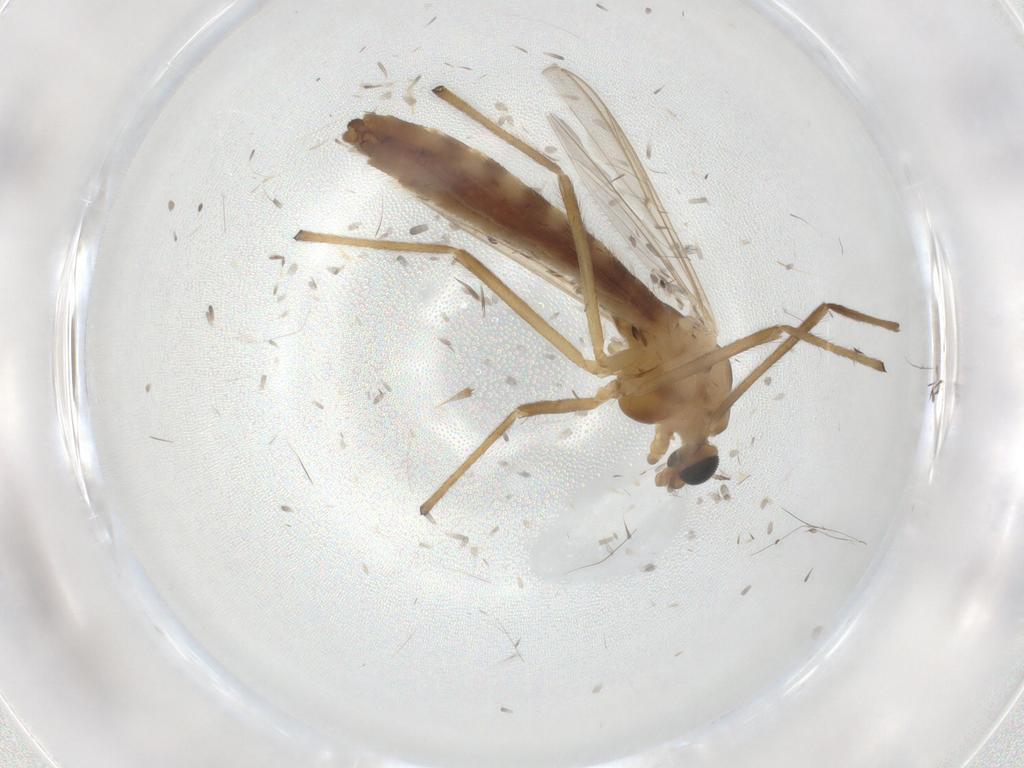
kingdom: Animalia
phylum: Arthropoda
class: Insecta
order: Diptera
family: Chironomidae
